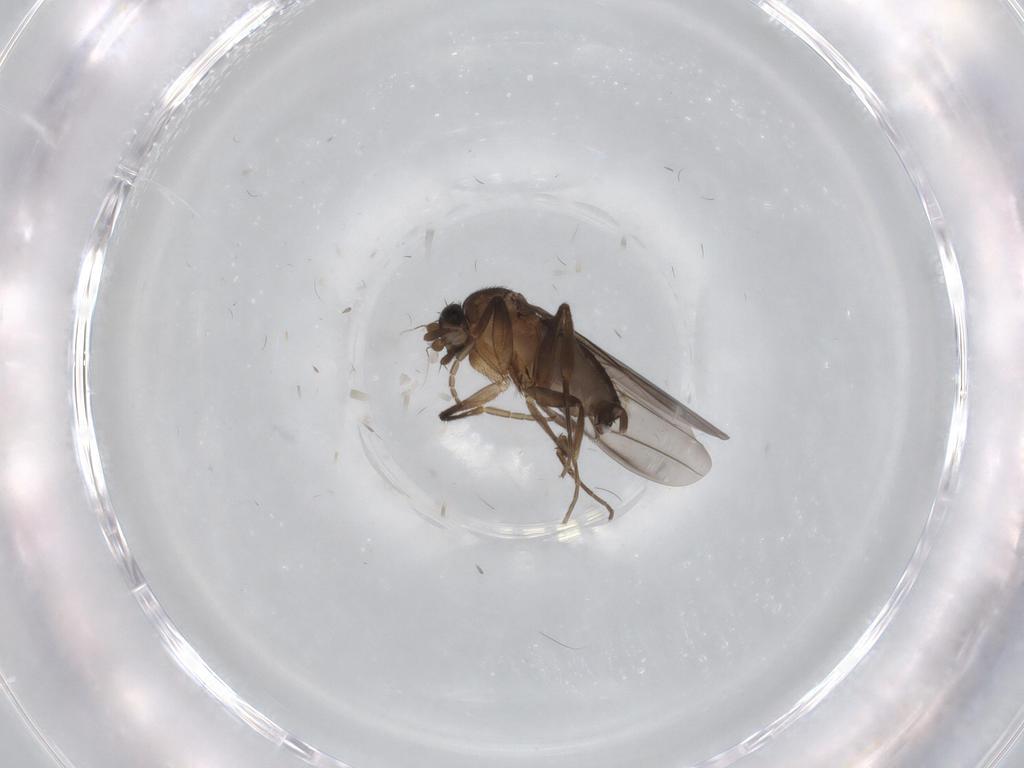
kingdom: Animalia
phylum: Arthropoda
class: Insecta
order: Diptera
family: Phoridae
